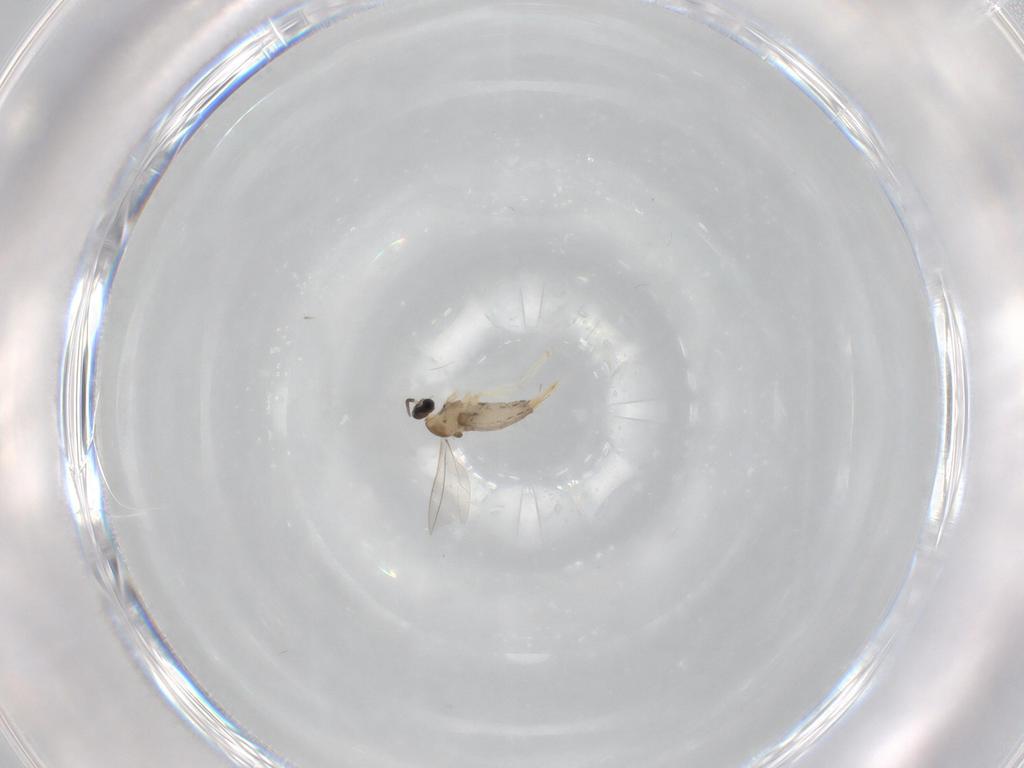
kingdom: Animalia
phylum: Arthropoda
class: Insecta
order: Diptera
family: Cecidomyiidae
